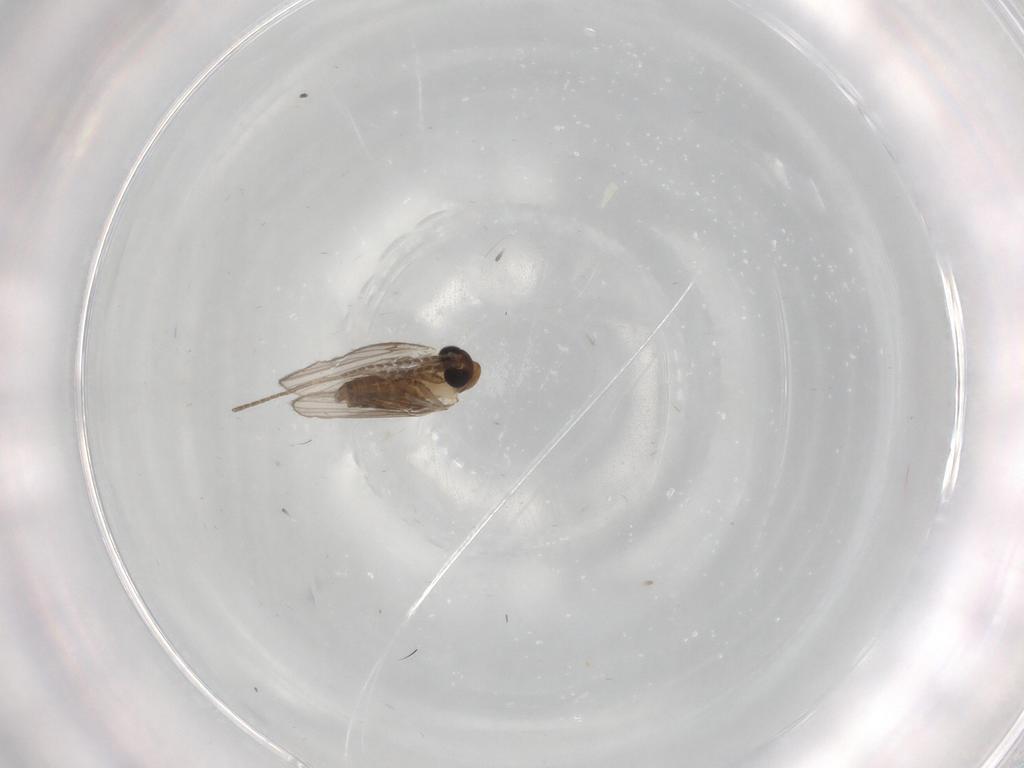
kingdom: Animalia
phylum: Arthropoda
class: Insecta
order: Diptera
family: Psychodidae
